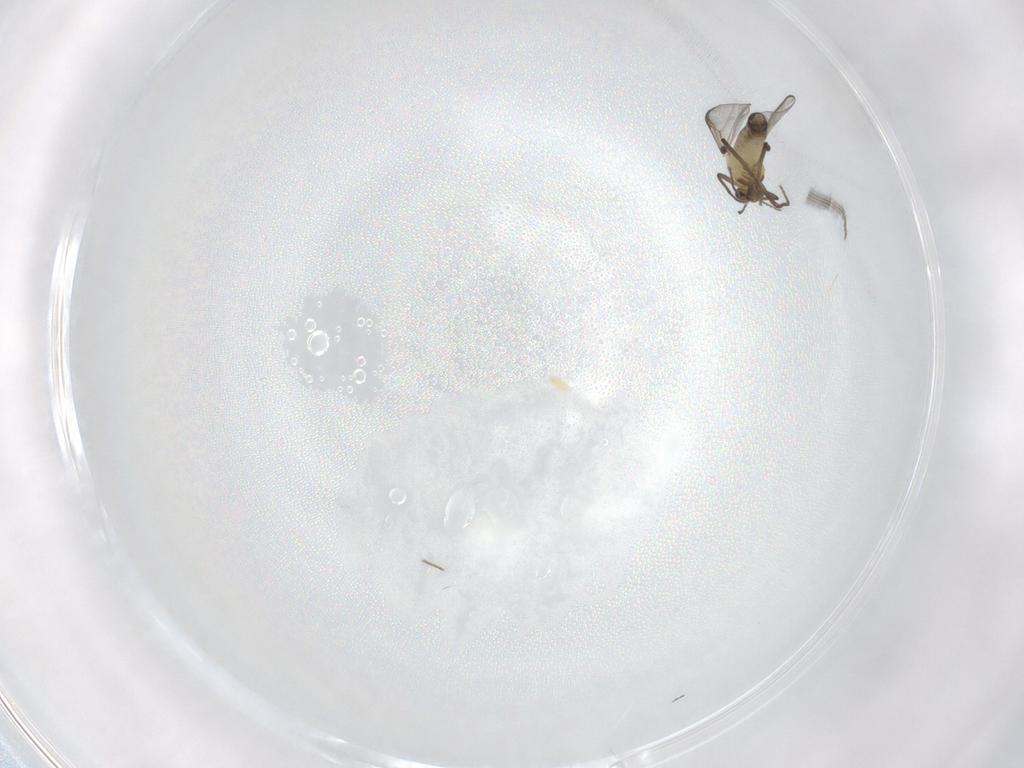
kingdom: Animalia
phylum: Arthropoda
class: Insecta
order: Diptera
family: Chironomidae
